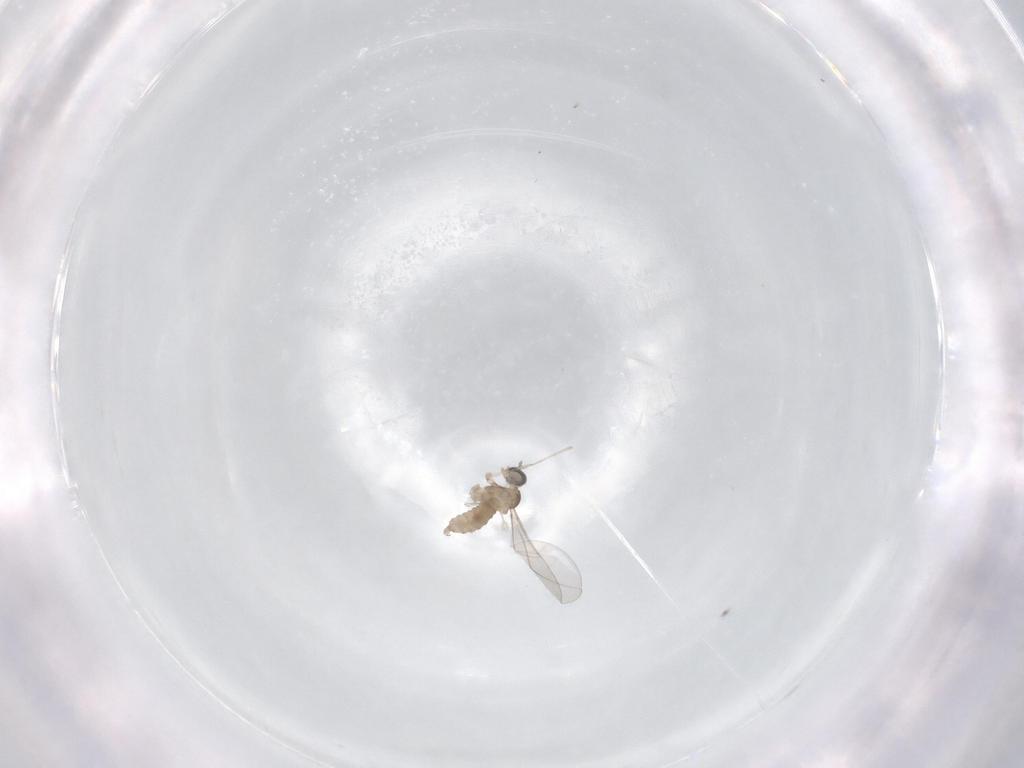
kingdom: Animalia
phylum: Arthropoda
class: Insecta
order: Diptera
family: Cecidomyiidae
